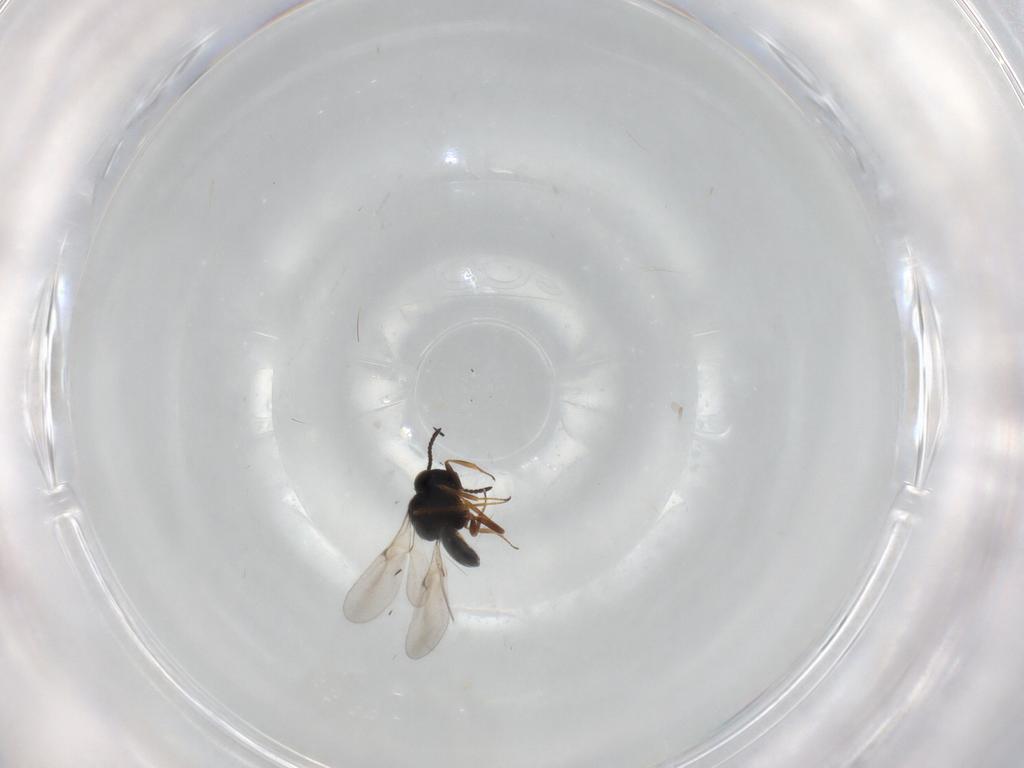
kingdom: Animalia
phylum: Arthropoda
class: Insecta
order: Hymenoptera
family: Scelionidae
